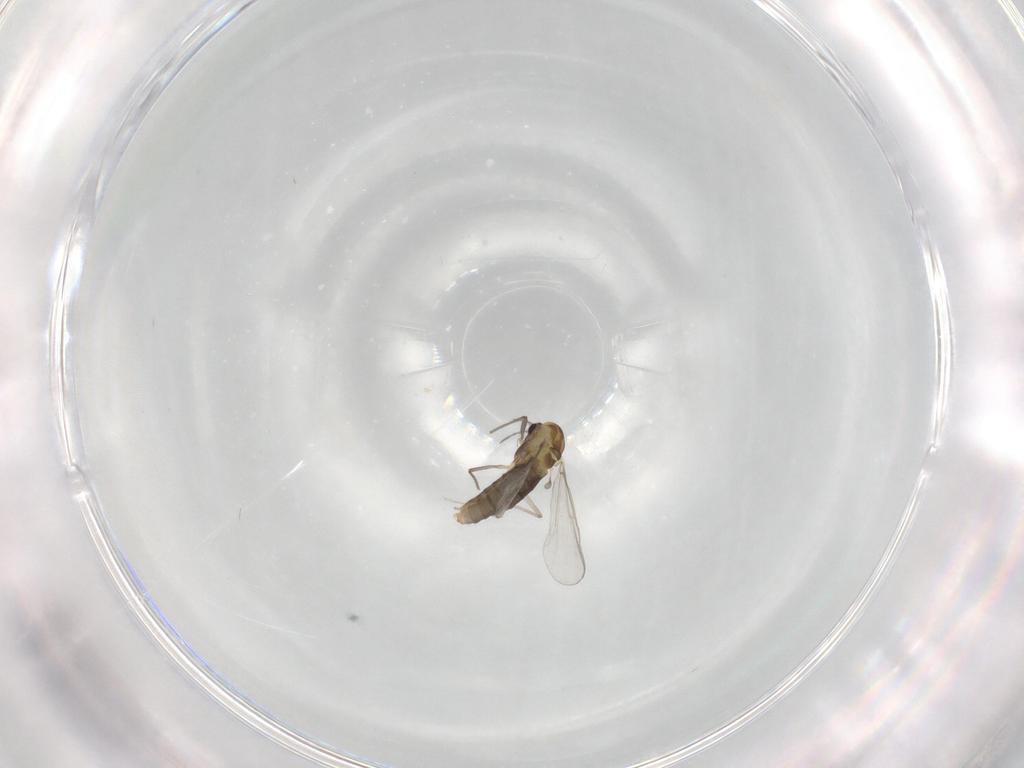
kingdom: Animalia
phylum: Arthropoda
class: Insecta
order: Diptera
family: Chironomidae
